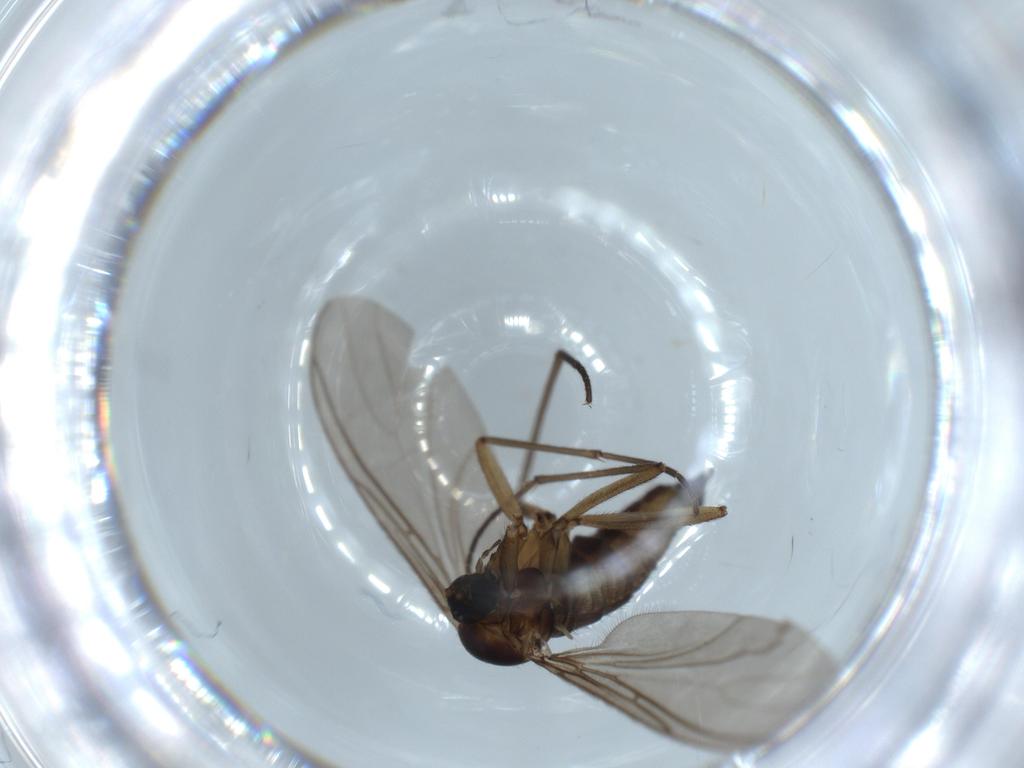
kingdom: Animalia
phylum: Arthropoda
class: Insecta
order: Diptera
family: Sciaridae
